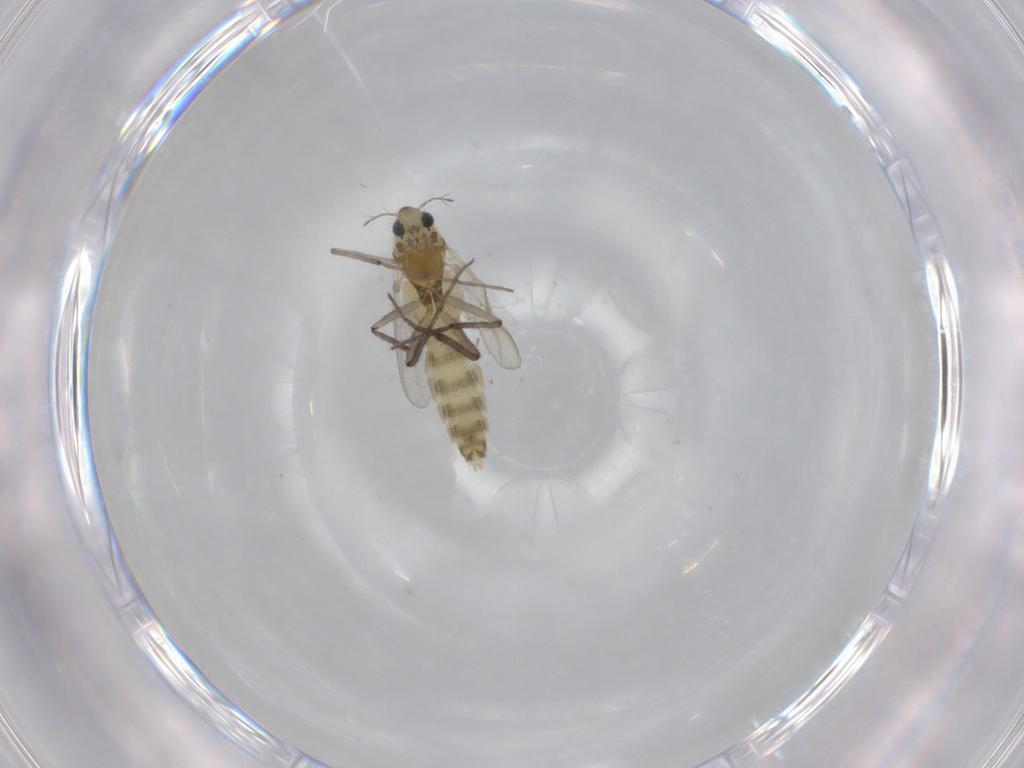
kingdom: Animalia
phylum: Arthropoda
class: Insecta
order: Diptera
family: Chironomidae
